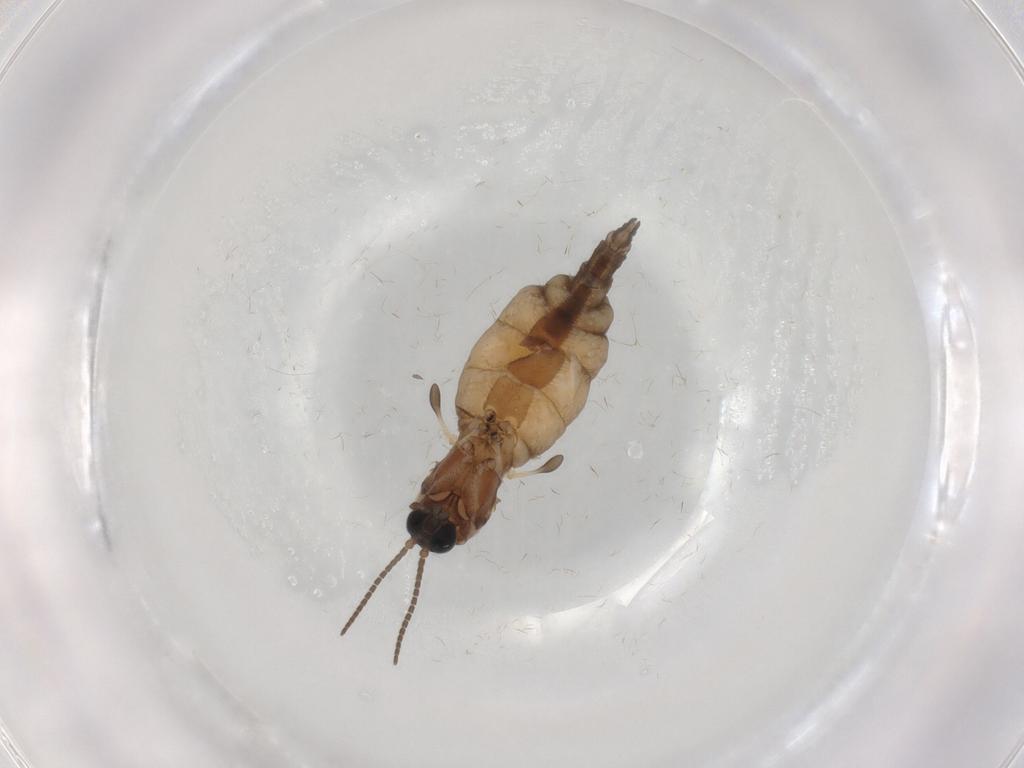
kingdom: Animalia
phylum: Arthropoda
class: Insecta
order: Diptera
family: Sciaridae
